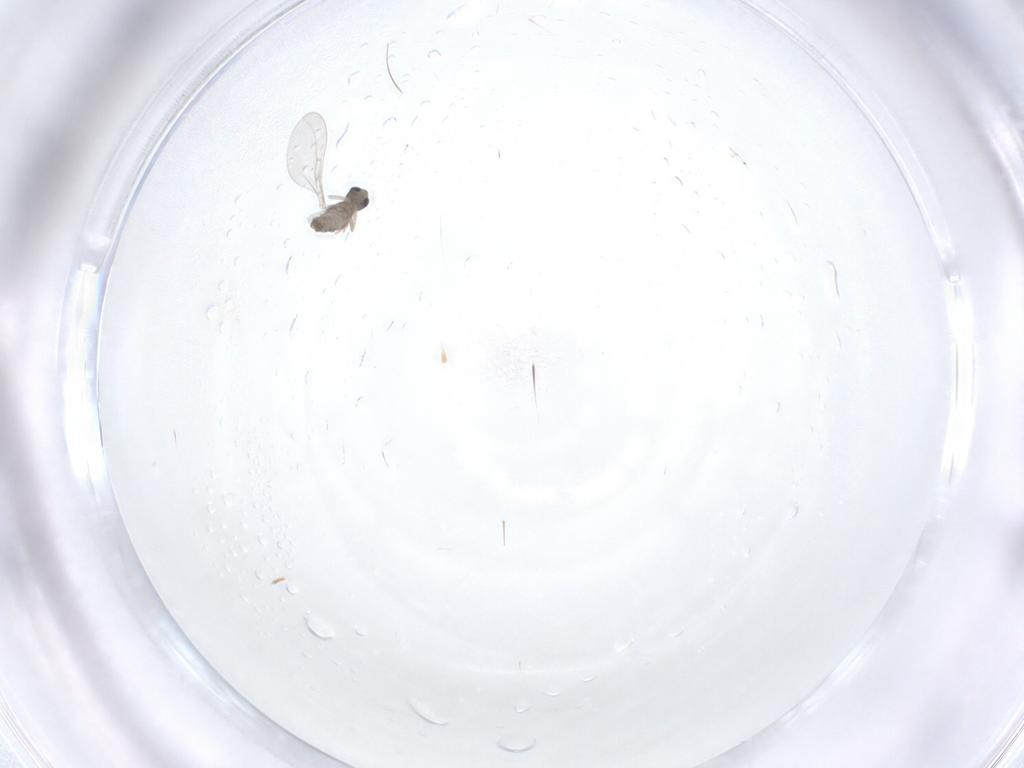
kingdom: Animalia
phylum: Arthropoda
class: Insecta
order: Diptera
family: Cecidomyiidae
